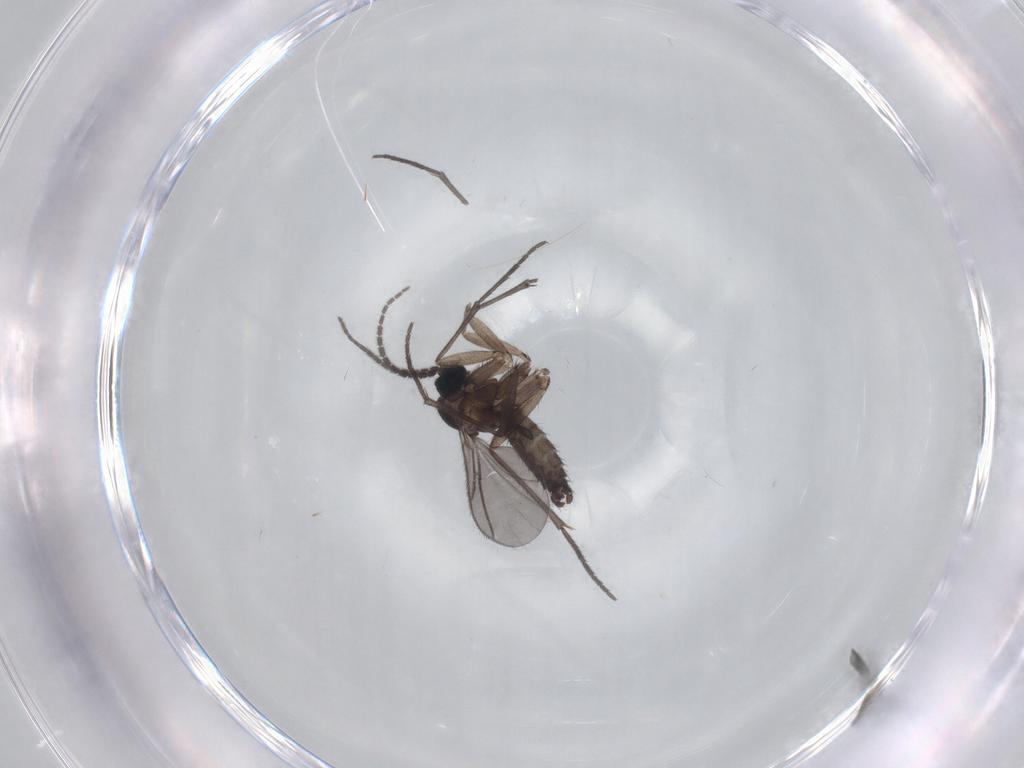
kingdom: Animalia
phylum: Arthropoda
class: Insecta
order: Diptera
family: Sciaridae
